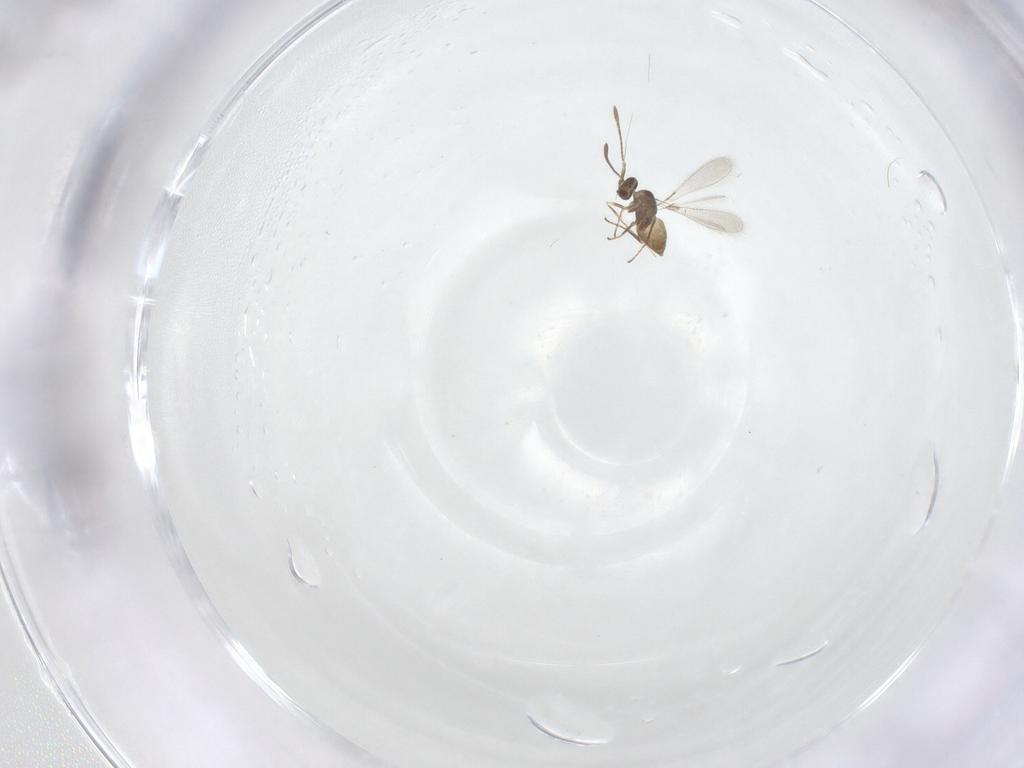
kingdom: Animalia
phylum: Arthropoda
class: Insecta
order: Hymenoptera
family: Mymaridae
